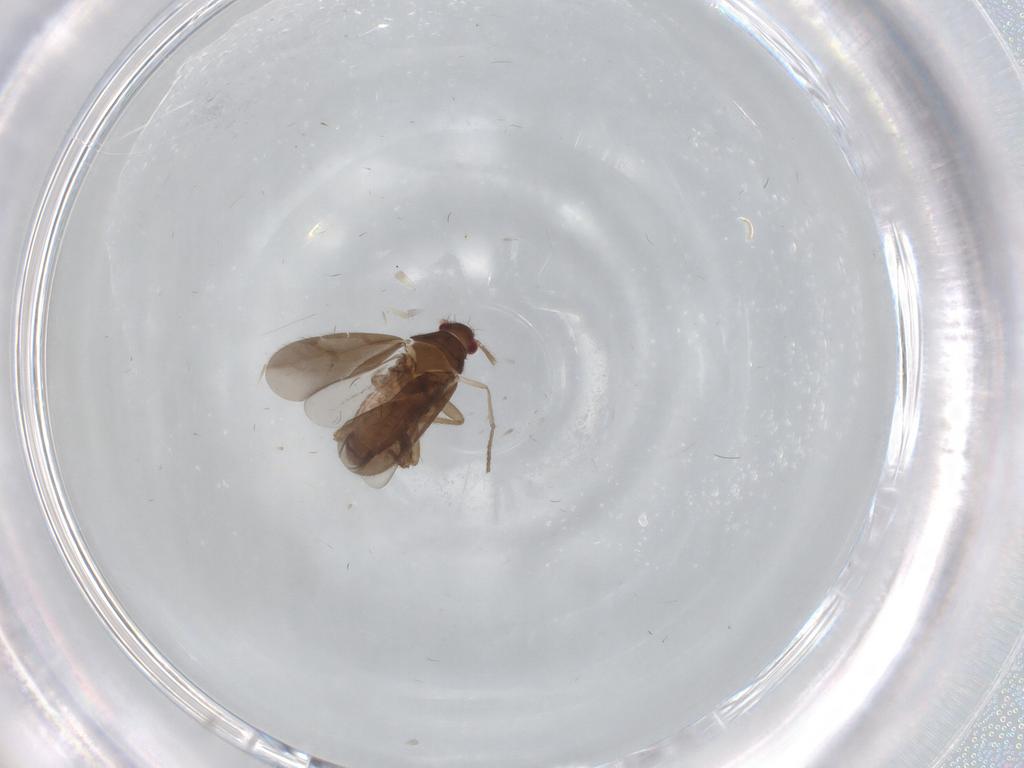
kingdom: Animalia
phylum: Arthropoda
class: Insecta
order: Hemiptera
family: Ceratocombidae
